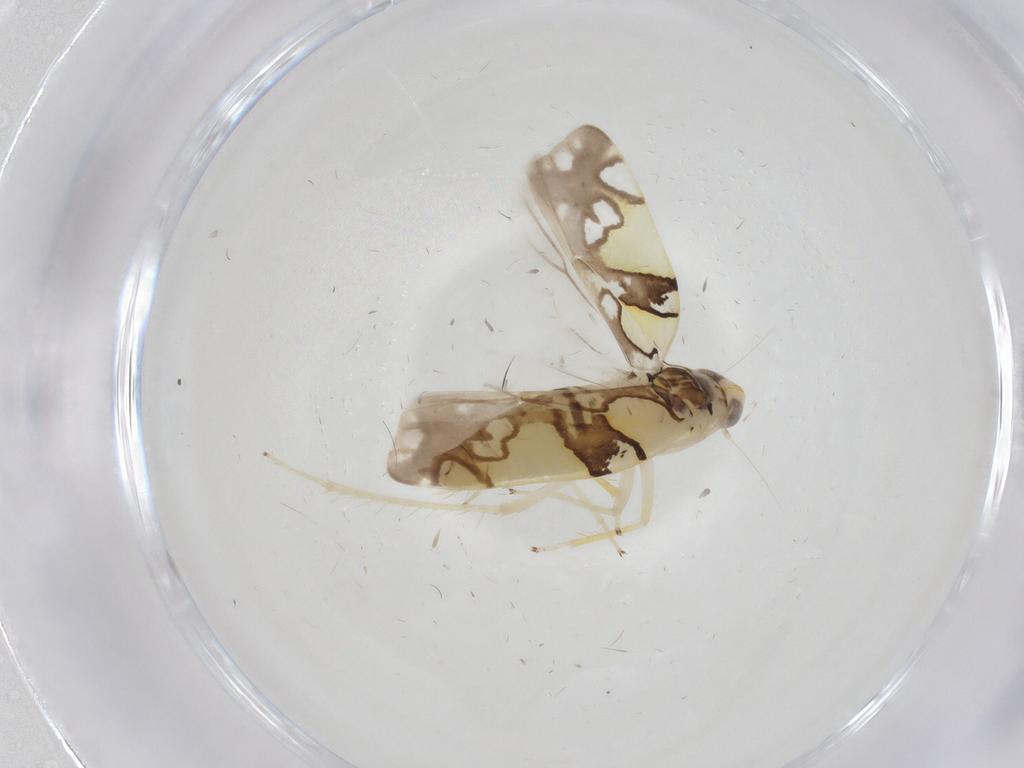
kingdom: Animalia
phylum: Arthropoda
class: Insecta
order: Hemiptera
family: Cicadellidae
